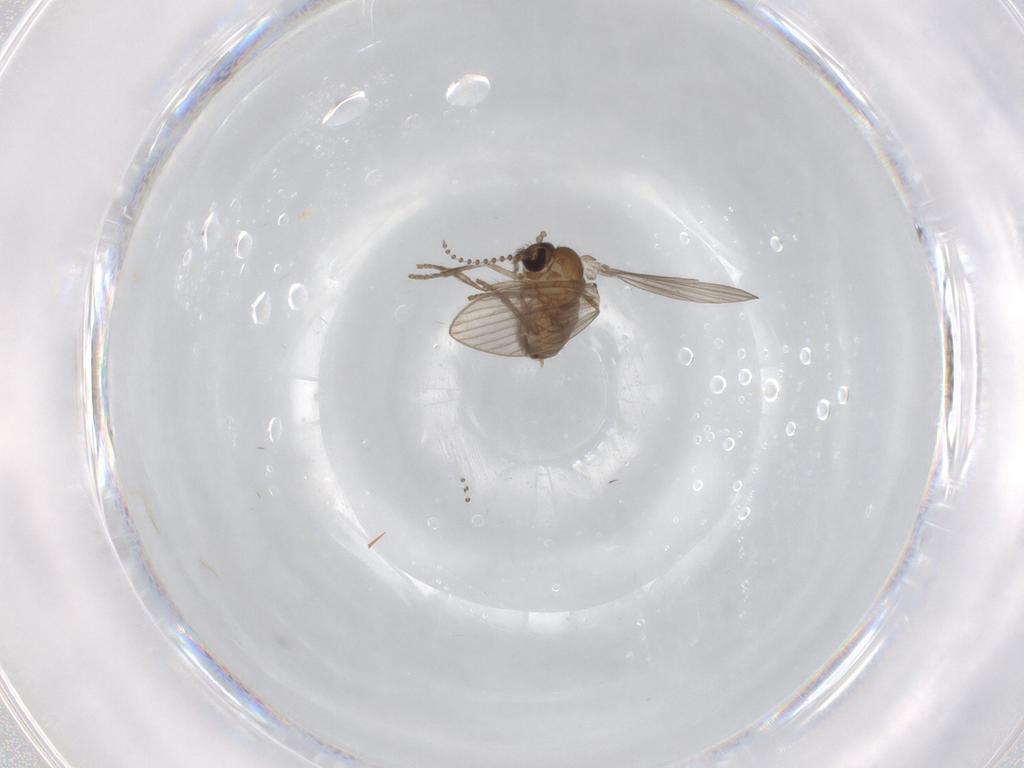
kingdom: Animalia
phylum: Arthropoda
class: Insecta
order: Diptera
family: Psychodidae
